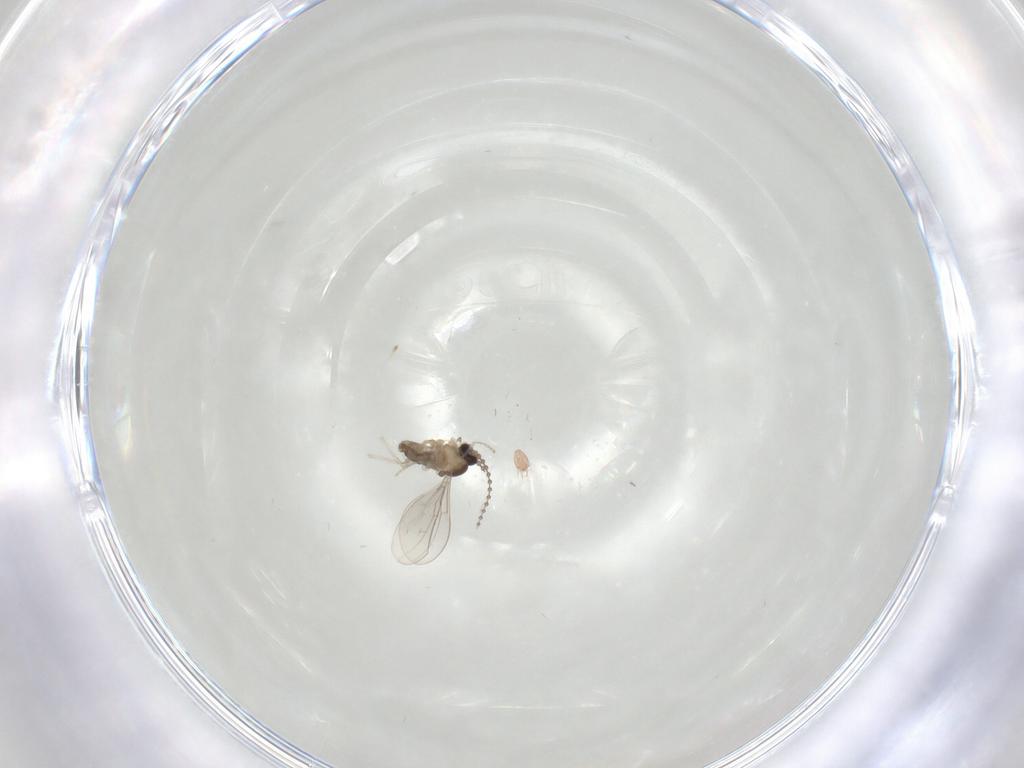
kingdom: Animalia
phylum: Arthropoda
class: Insecta
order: Diptera
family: Cecidomyiidae
